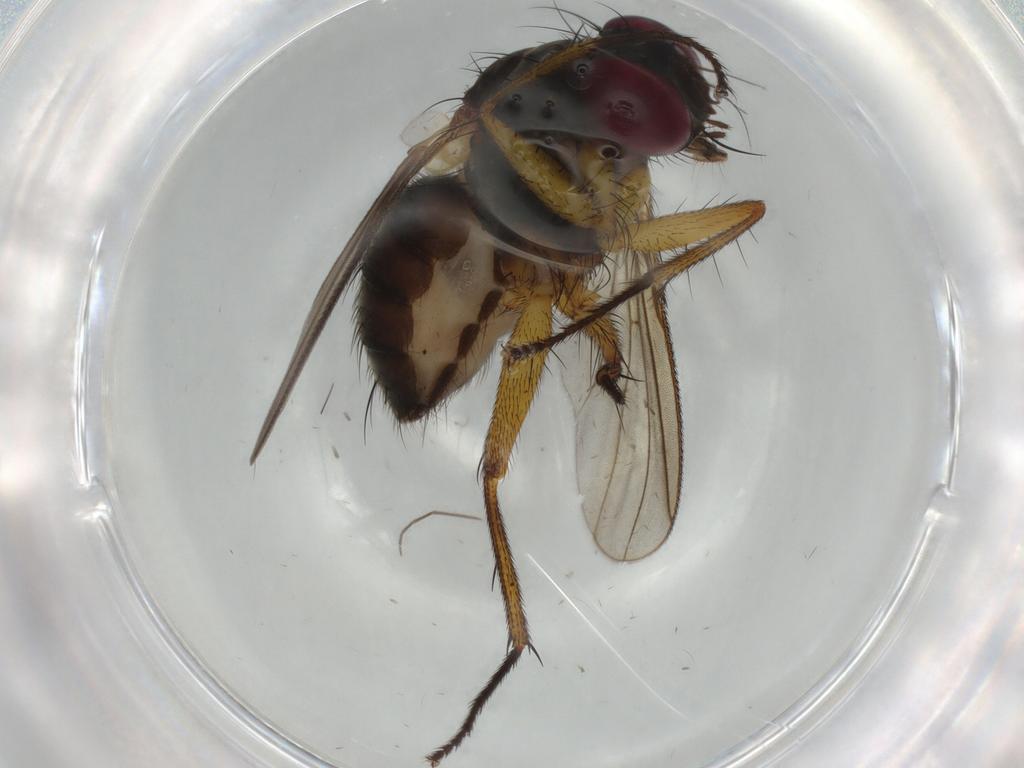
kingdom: Animalia
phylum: Arthropoda
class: Insecta
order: Diptera
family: Muscidae
